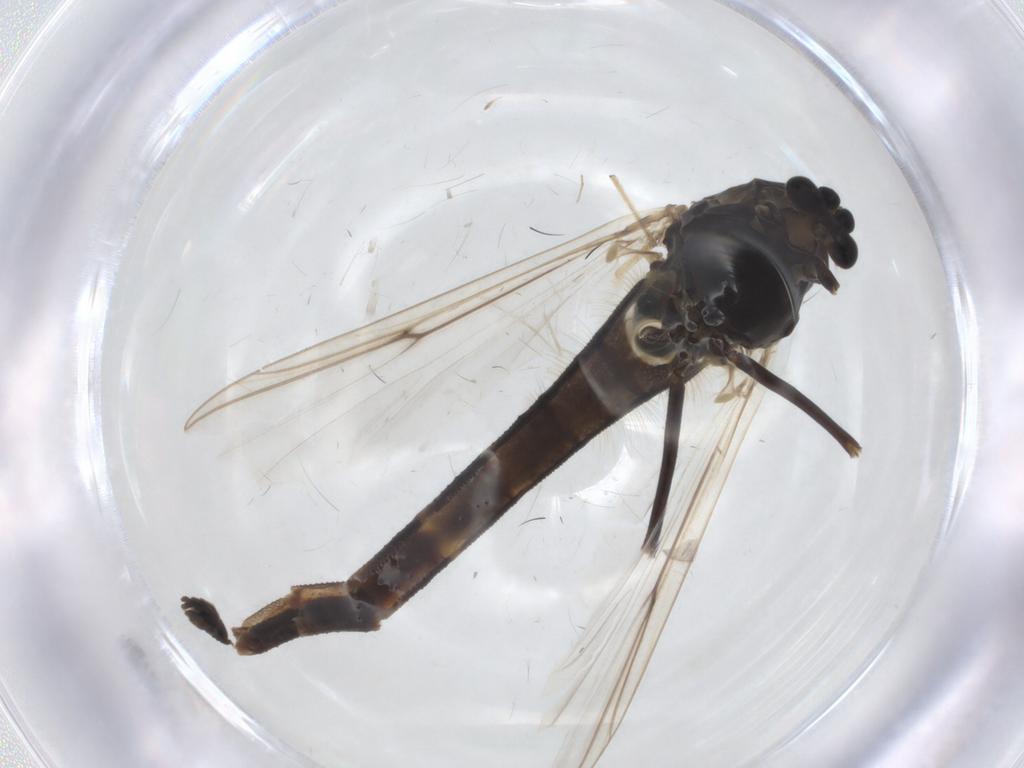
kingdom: Animalia
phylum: Arthropoda
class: Insecta
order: Diptera
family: Chironomidae
